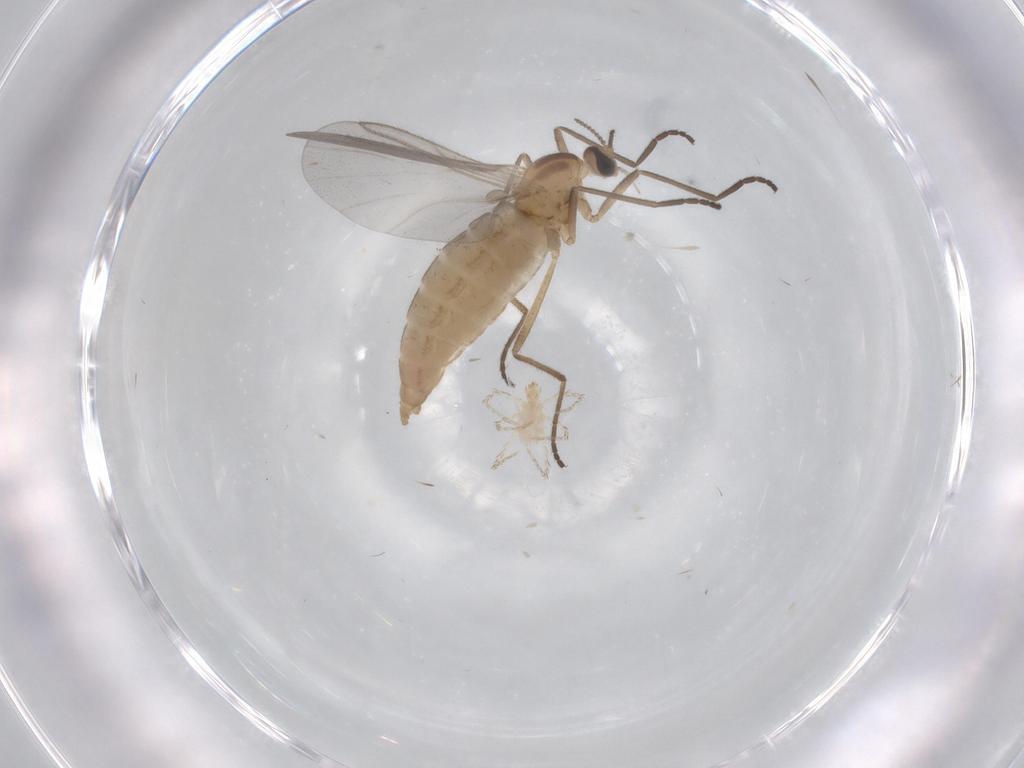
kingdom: Animalia
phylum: Arthropoda
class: Insecta
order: Diptera
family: Cecidomyiidae
